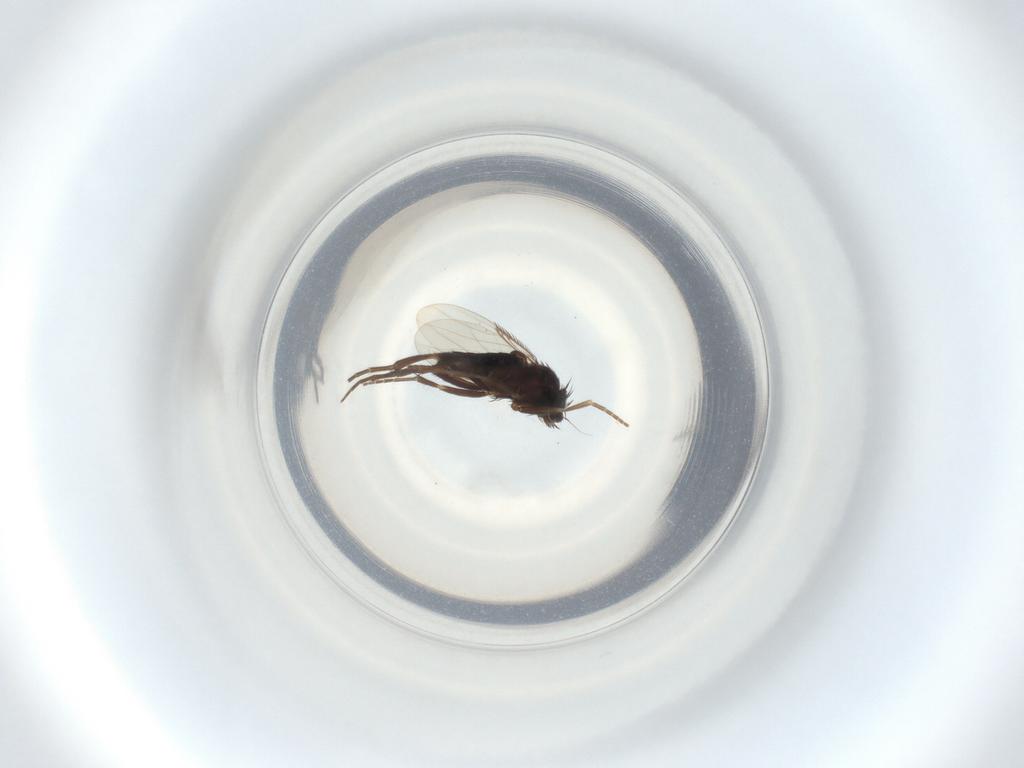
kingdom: Animalia
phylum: Arthropoda
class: Insecta
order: Diptera
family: Phoridae
